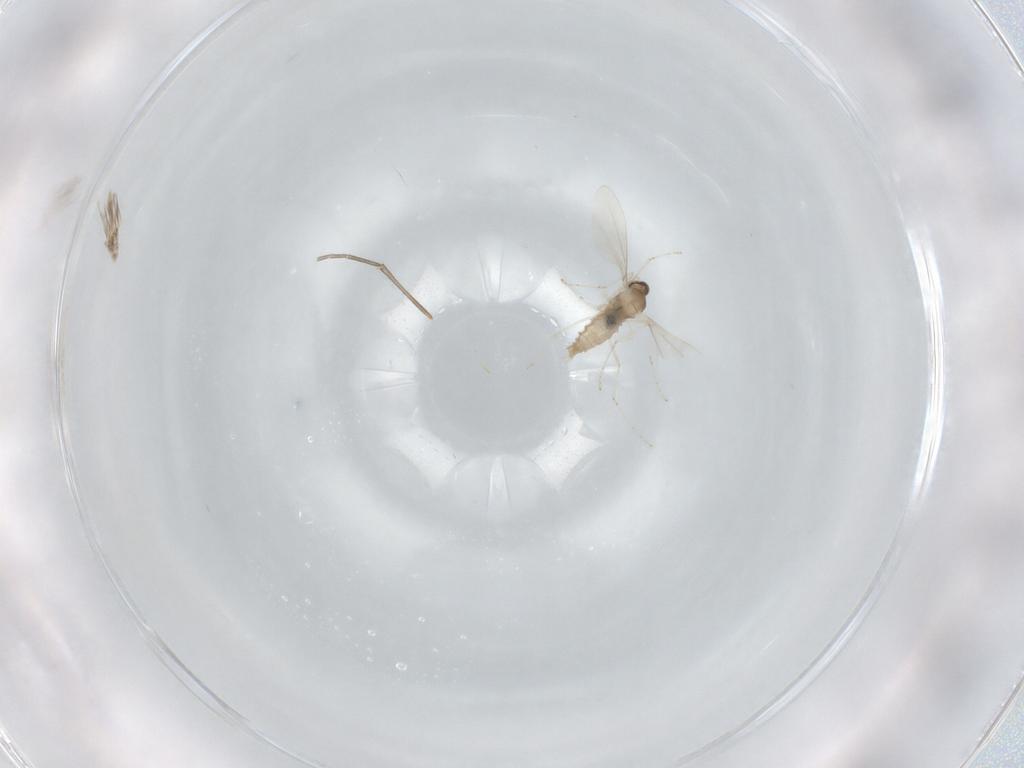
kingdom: Animalia
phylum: Arthropoda
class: Insecta
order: Diptera
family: Cecidomyiidae
